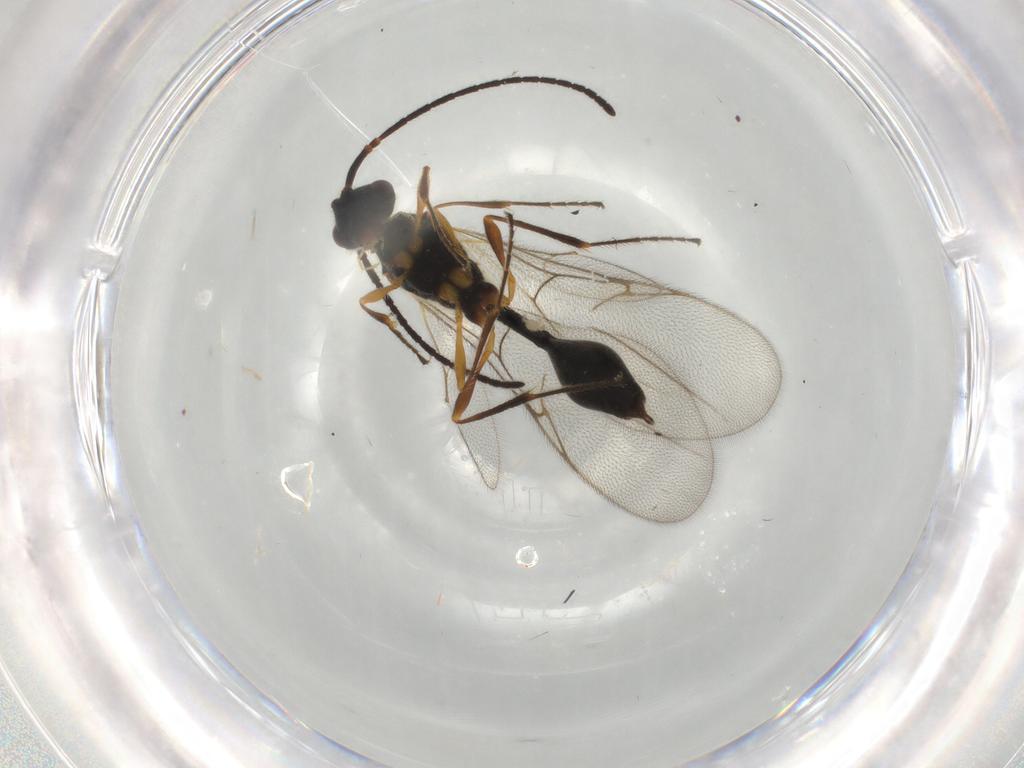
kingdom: Animalia
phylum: Arthropoda
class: Insecta
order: Hymenoptera
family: Diapriidae
